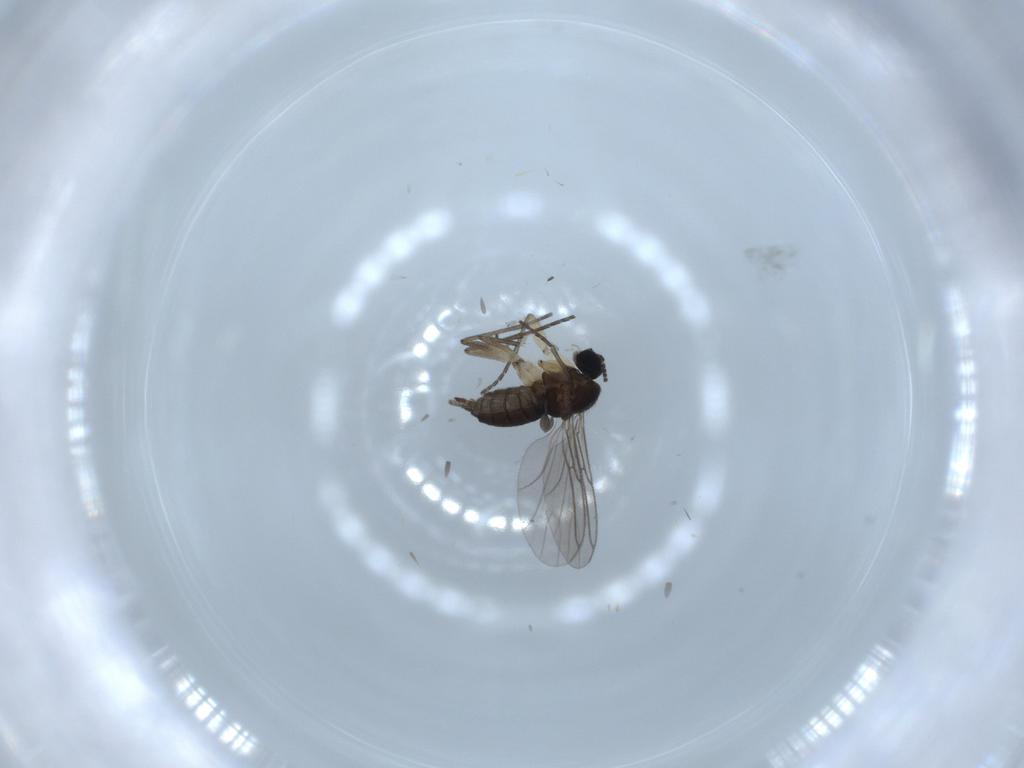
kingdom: Animalia
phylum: Arthropoda
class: Insecta
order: Diptera
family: Sciaridae
